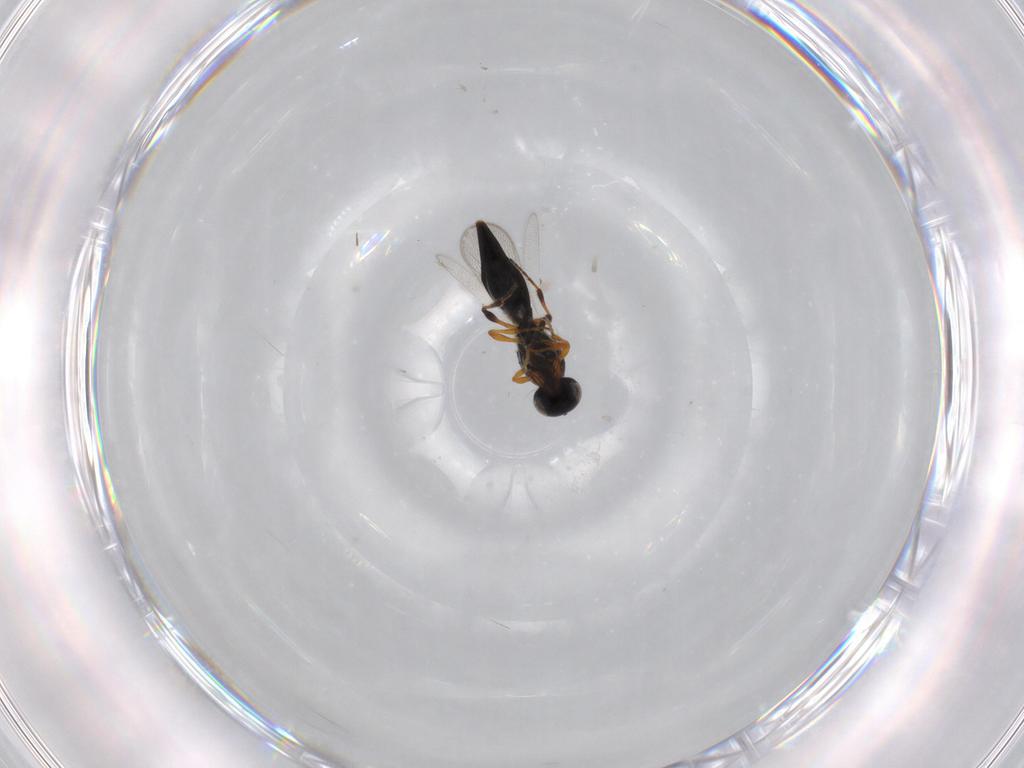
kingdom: Animalia
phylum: Arthropoda
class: Insecta
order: Hymenoptera
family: Platygastridae
